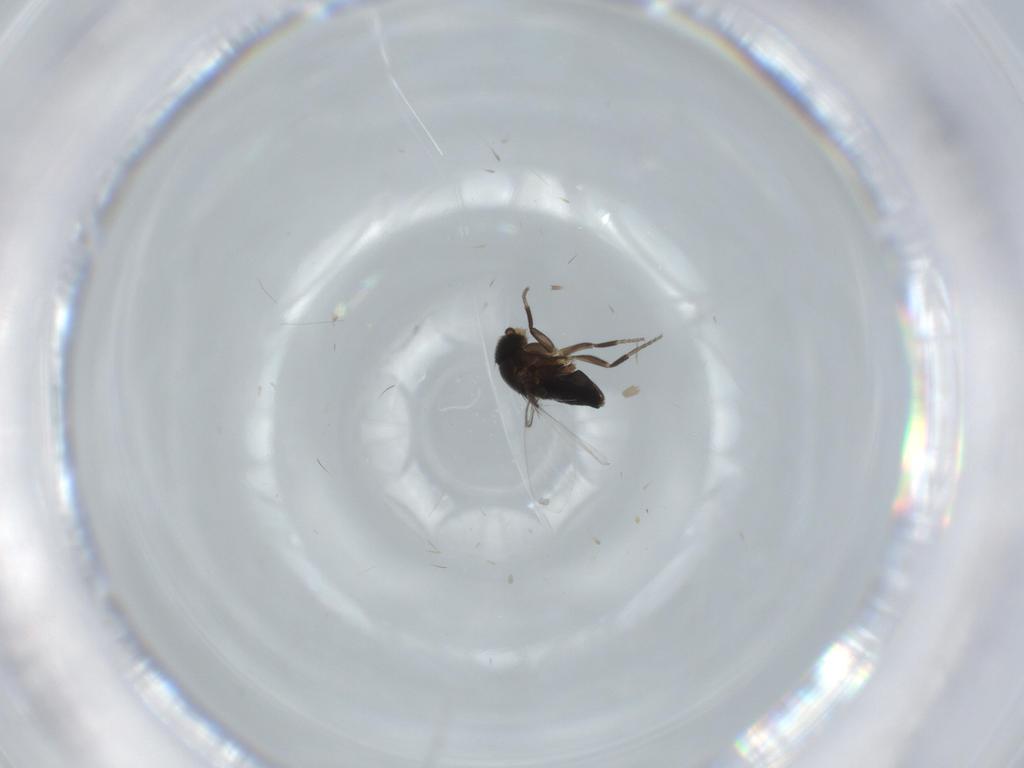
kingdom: Animalia
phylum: Arthropoda
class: Insecta
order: Diptera
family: Phoridae
